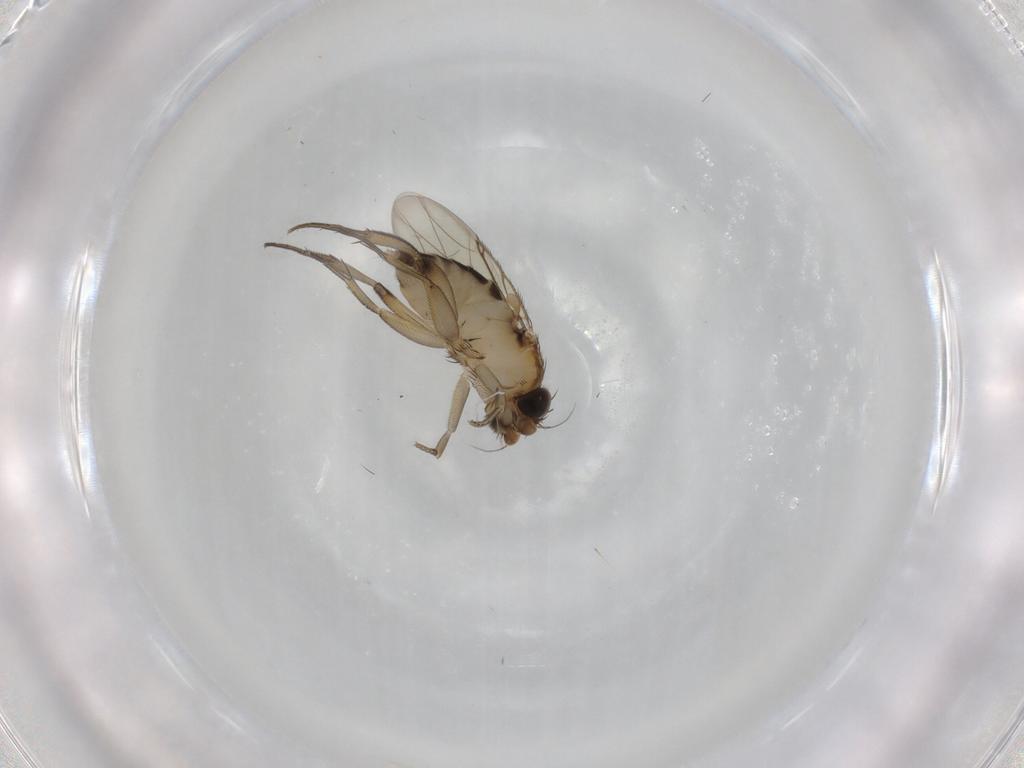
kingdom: Animalia
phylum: Arthropoda
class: Insecta
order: Diptera
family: Phoridae
